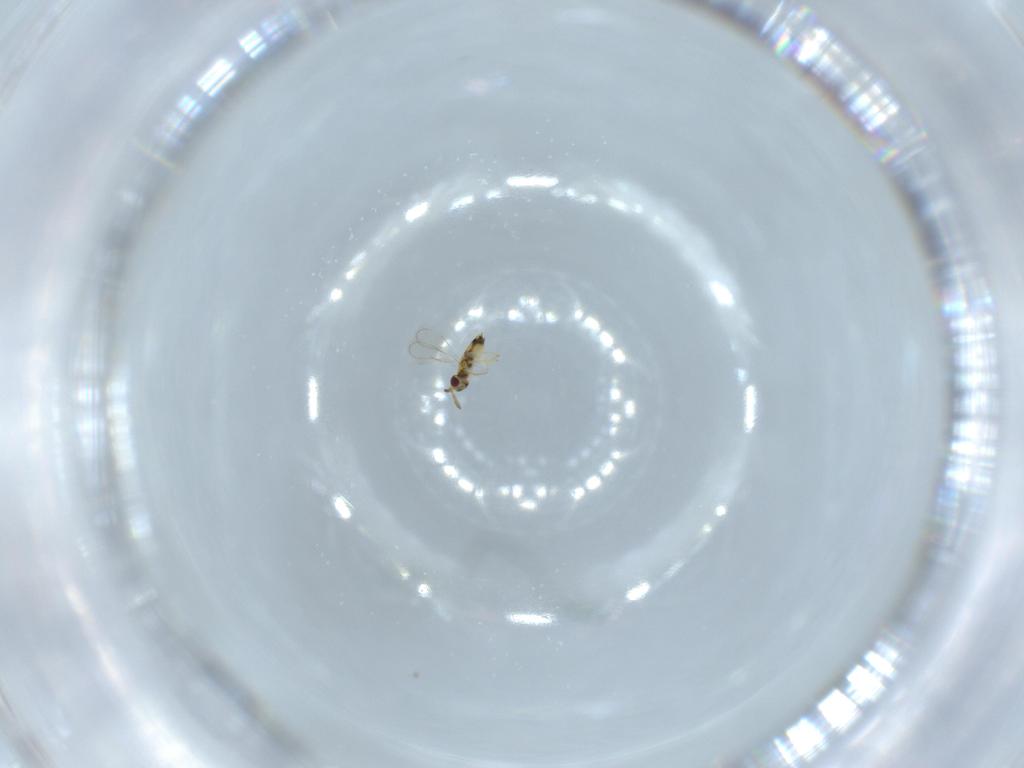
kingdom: Animalia
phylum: Arthropoda
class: Insecta
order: Hymenoptera
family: Aphelinidae
